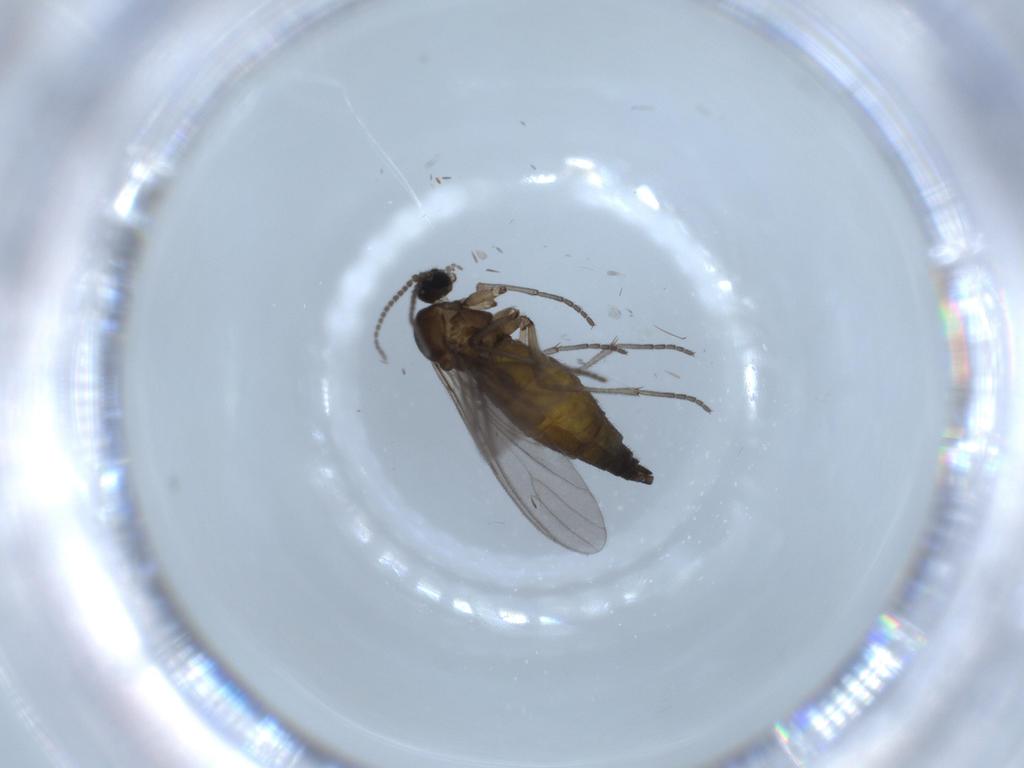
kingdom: Animalia
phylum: Arthropoda
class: Insecta
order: Diptera
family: Sciaridae
